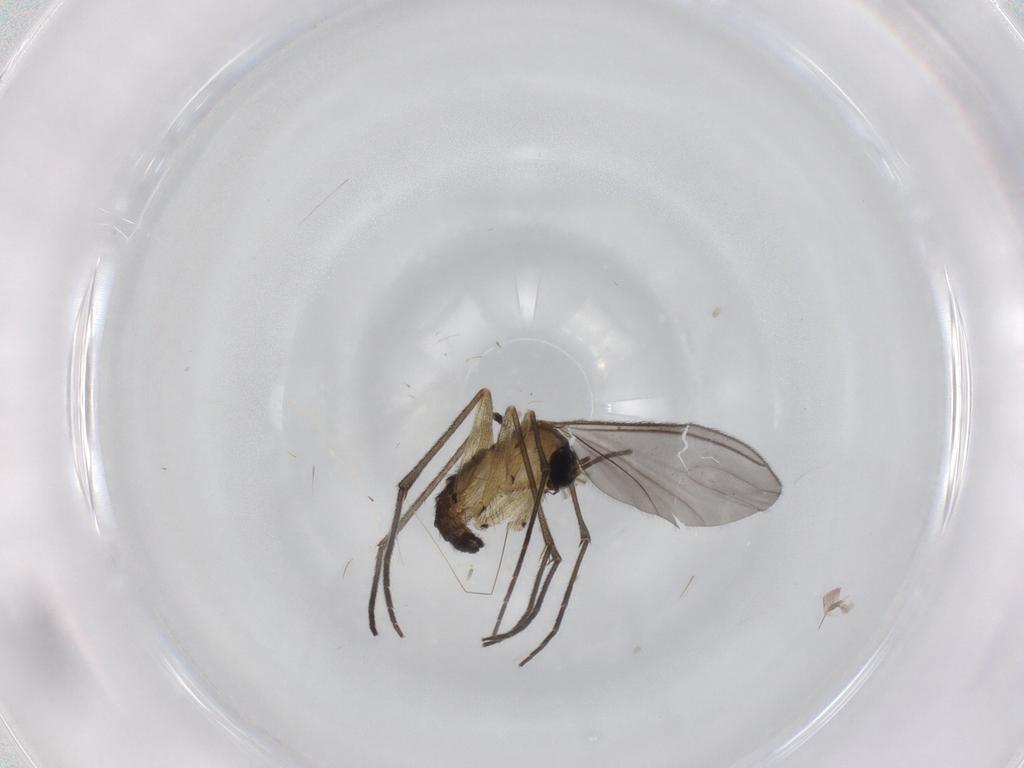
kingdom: Animalia
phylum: Arthropoda
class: Insecta
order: Diptera
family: Sciaridae
